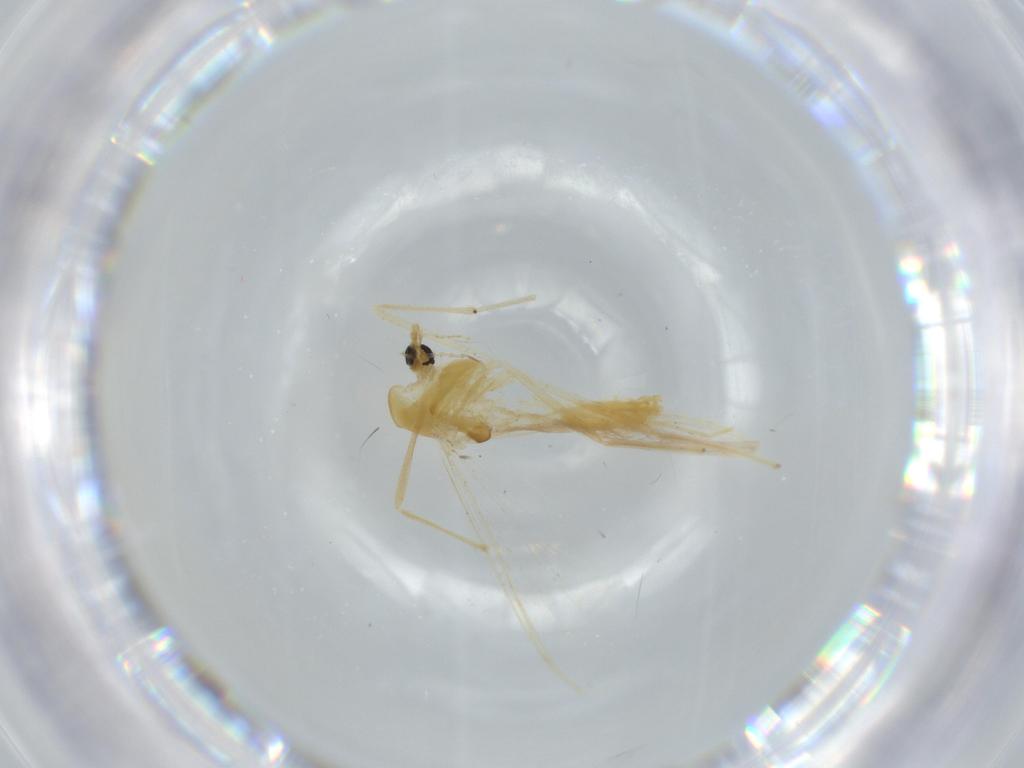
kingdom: Animalia
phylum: Arthropoda
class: Insecta
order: Diptera
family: Chironomidae
